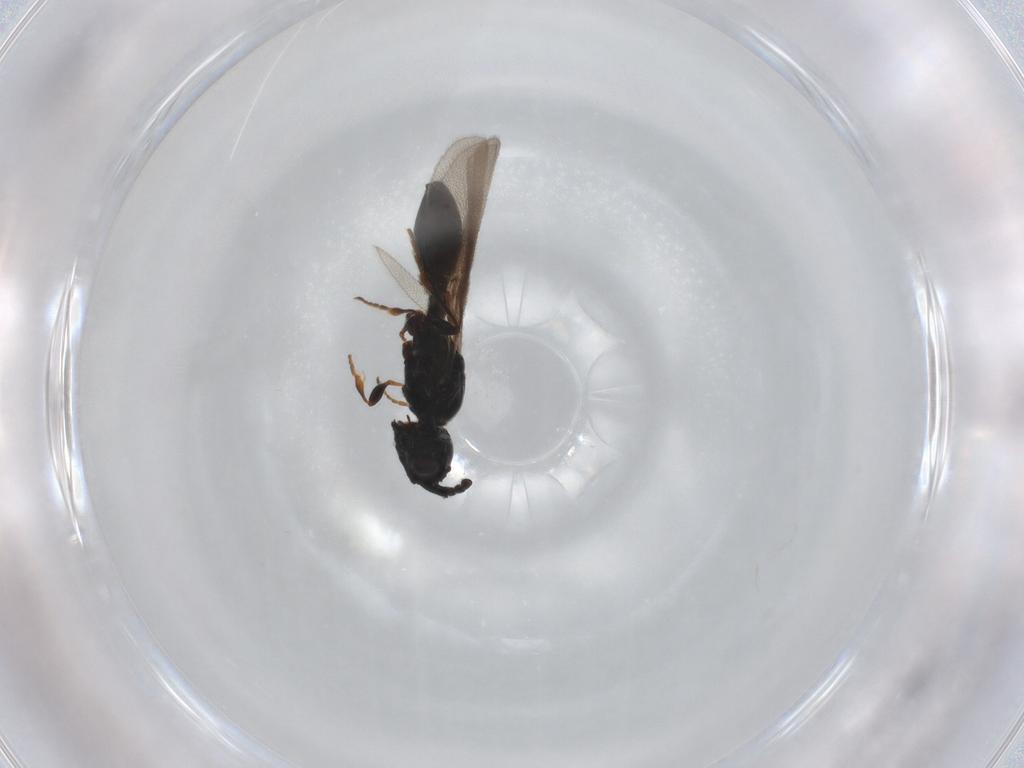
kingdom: Animalia
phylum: Arthropoda
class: Insecta
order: Hymenoptera
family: Diapriidae
